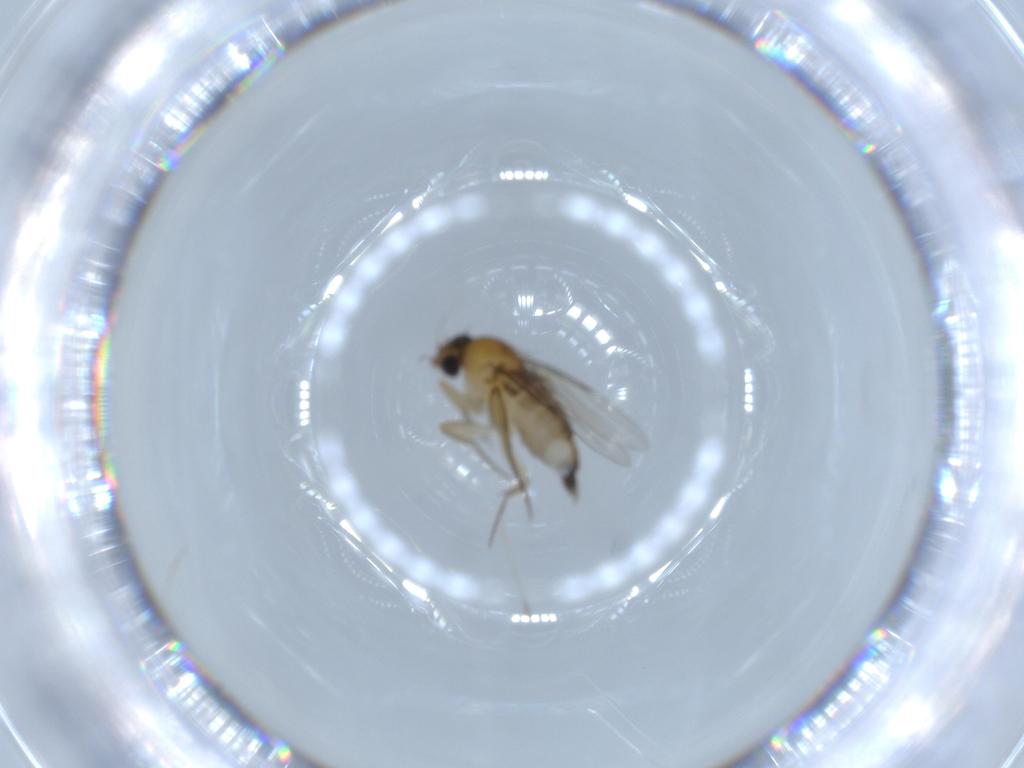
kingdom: Animalia
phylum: Arthropoda
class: Insecta
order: Diptera
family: Phoridae
